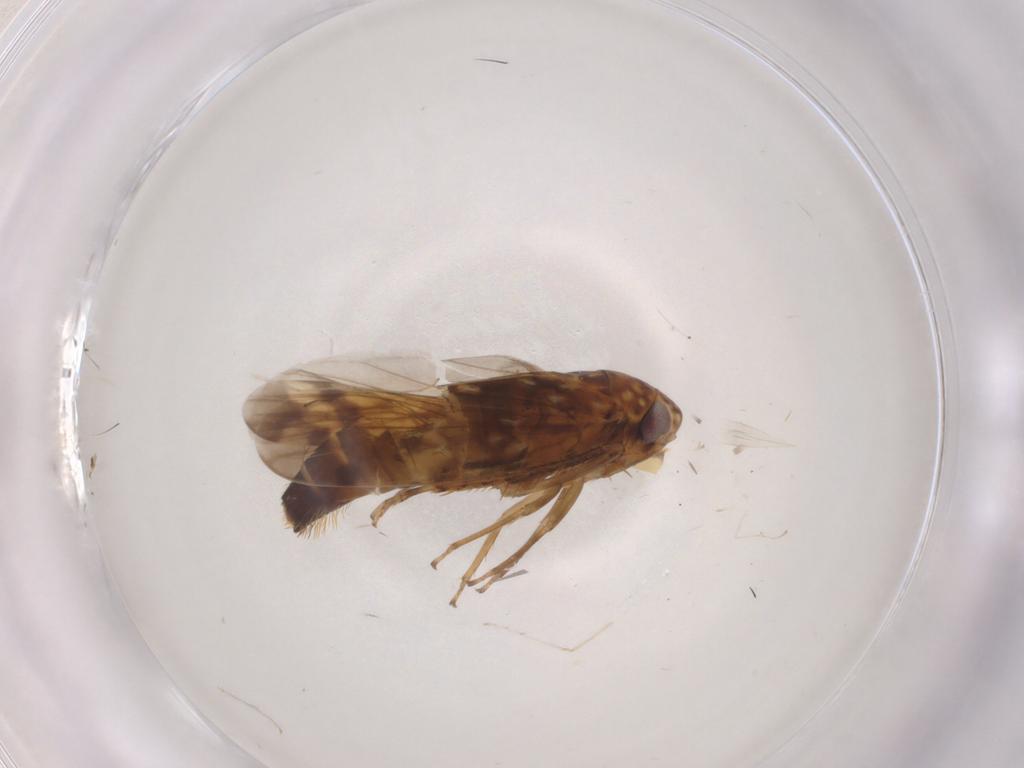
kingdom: Animalia
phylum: Arthropoda
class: Insecta
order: Hemiptera
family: Cicadellidae
